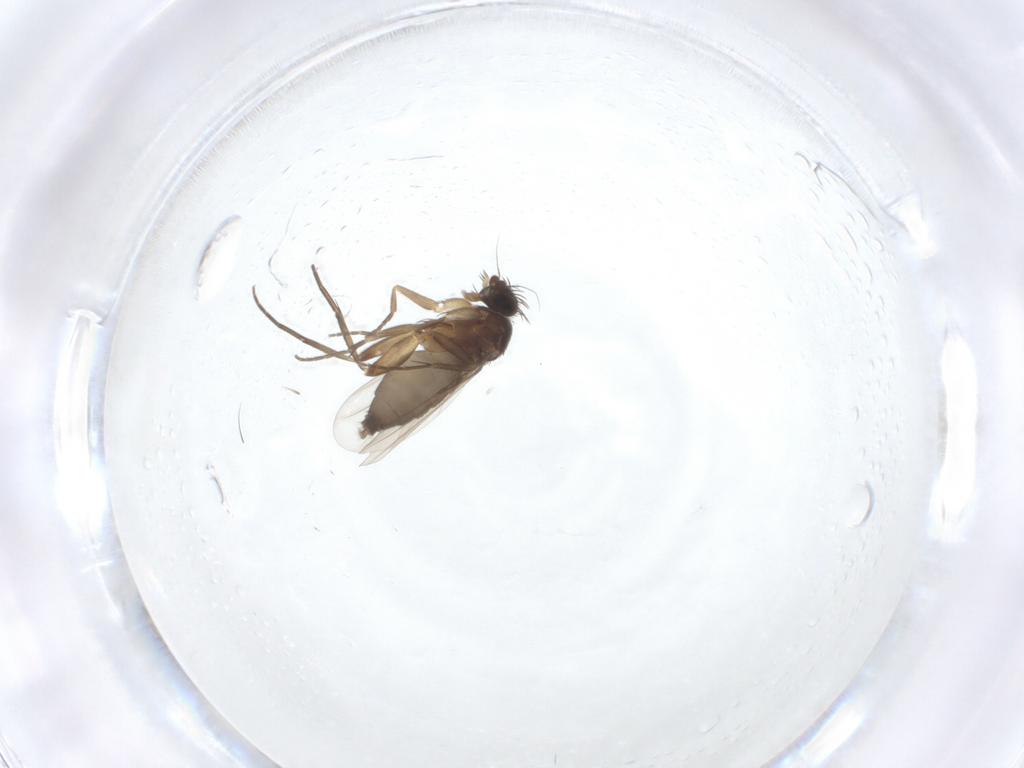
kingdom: Animalia
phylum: Arthropoda
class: Insecta
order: Diptera
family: Phoridae
